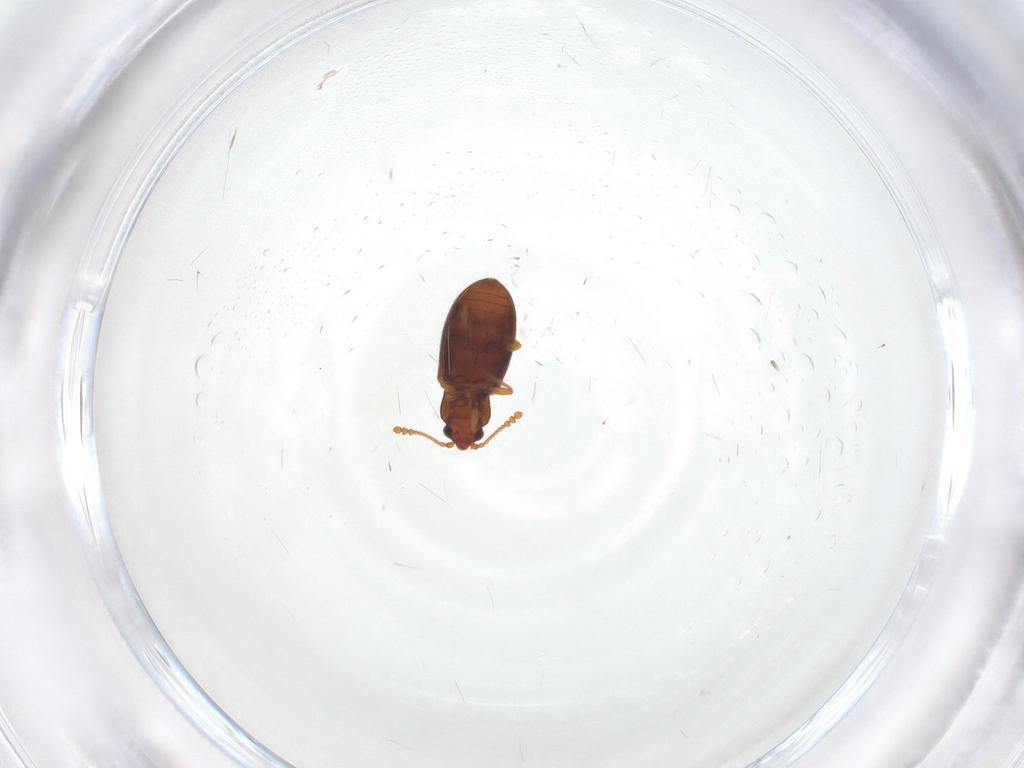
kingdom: Animalia
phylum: Arthropoda
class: Insecta
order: Coleoptera
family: Cryptophagidae
